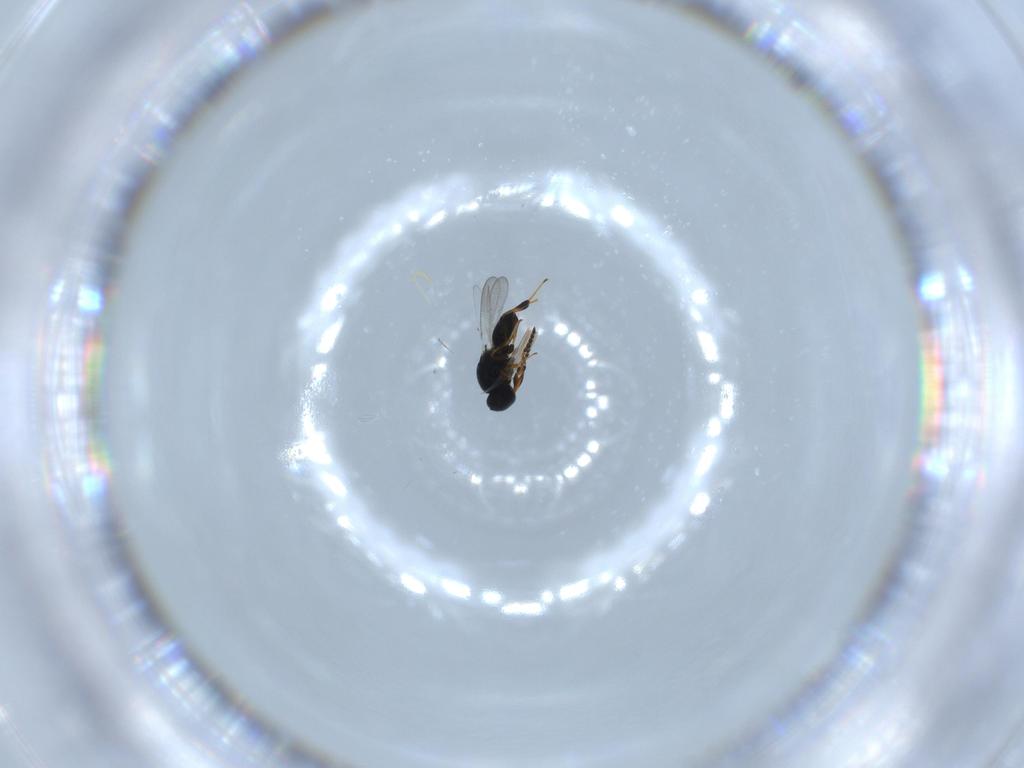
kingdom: Animalia
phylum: Arthropoda
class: Insecta
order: Hymenoptera
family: Platygastridae
